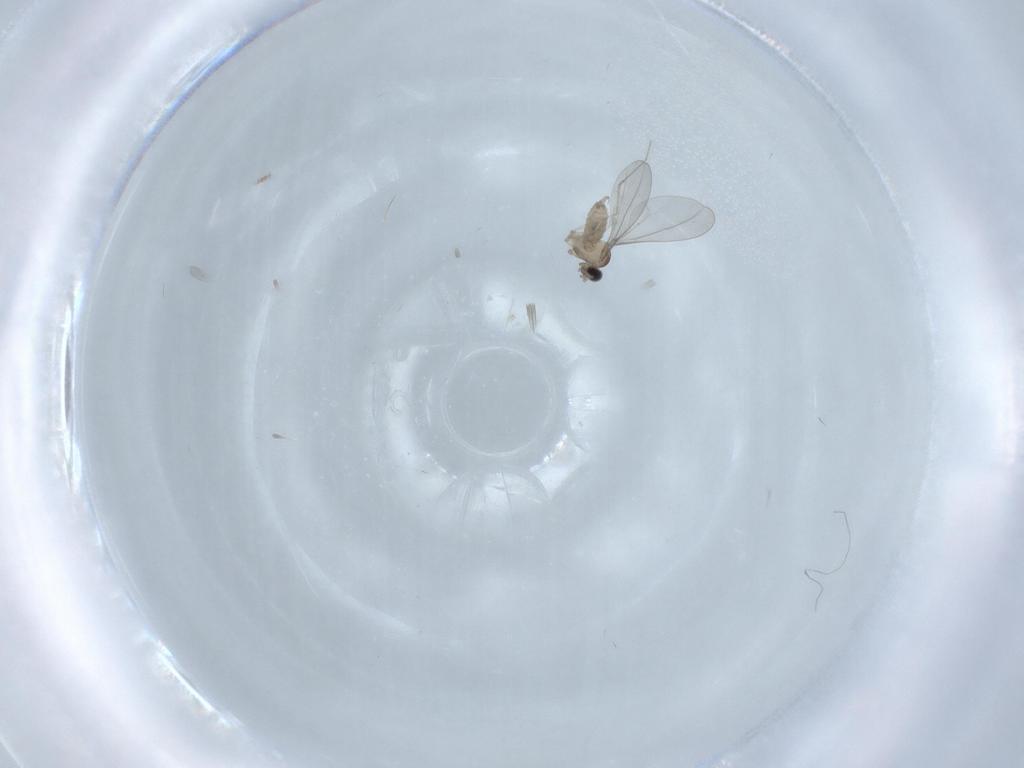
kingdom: Animalia
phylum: Arthropoda
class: Insecta
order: Diptera
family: Cecidomyiidae
